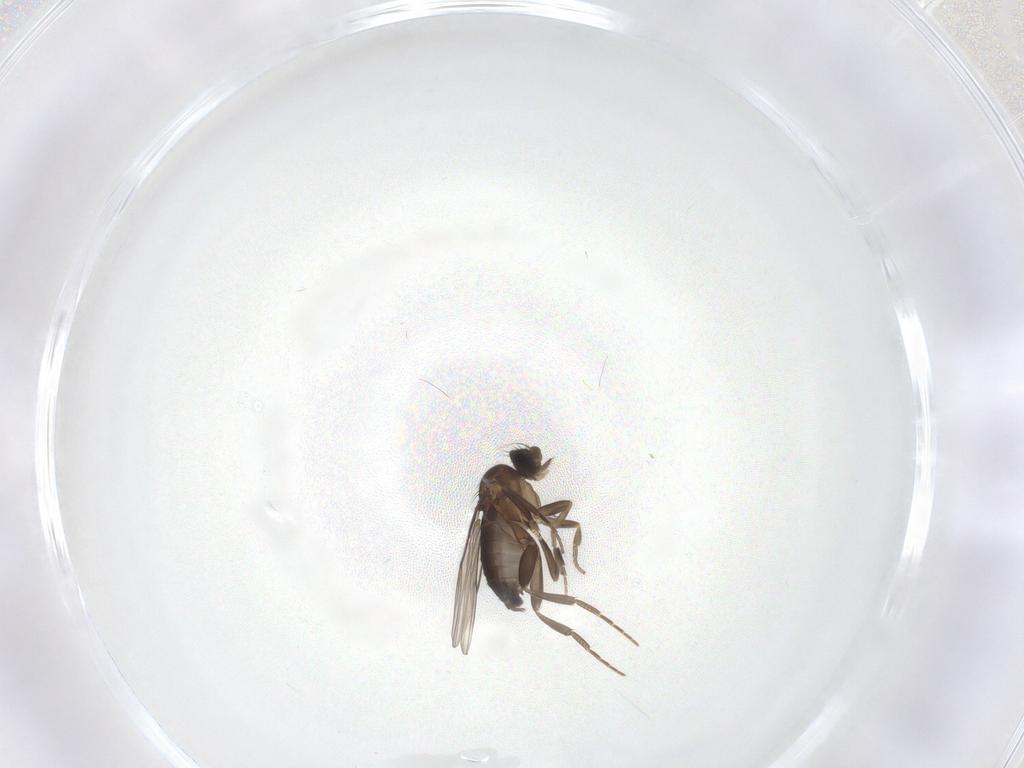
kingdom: Animalia
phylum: Arthropoda
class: Insecta
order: Diptera
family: Phoridae
